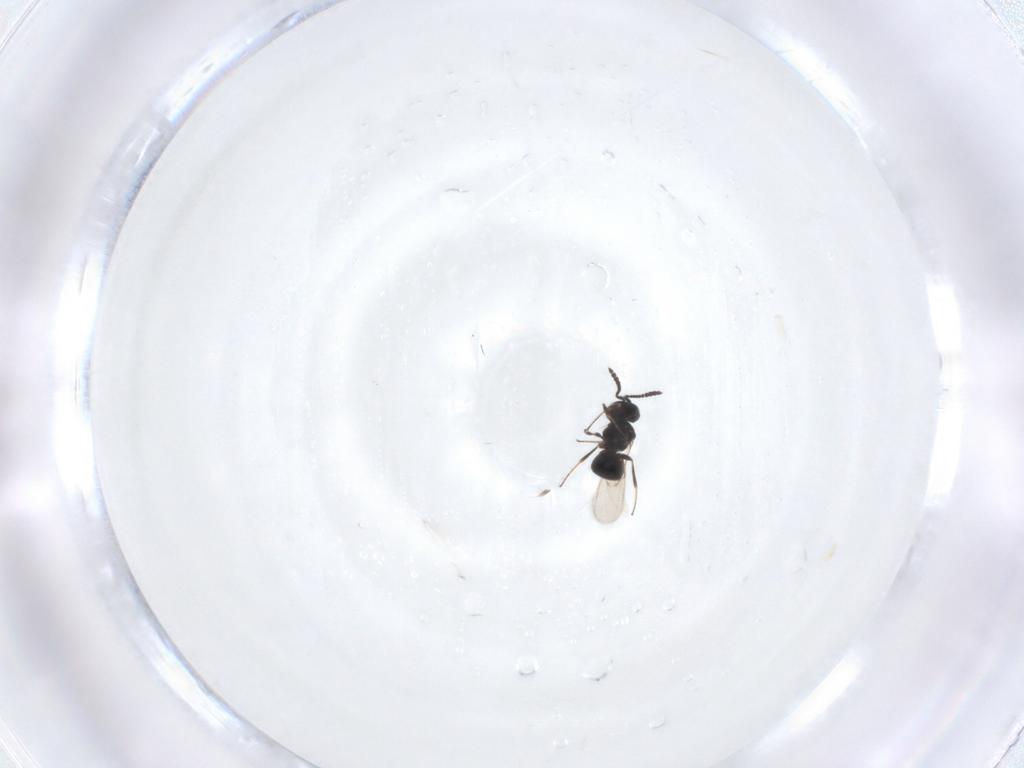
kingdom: Animalia
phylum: Arthropoda
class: Insecta
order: Hymenoptera
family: Scelionidae
